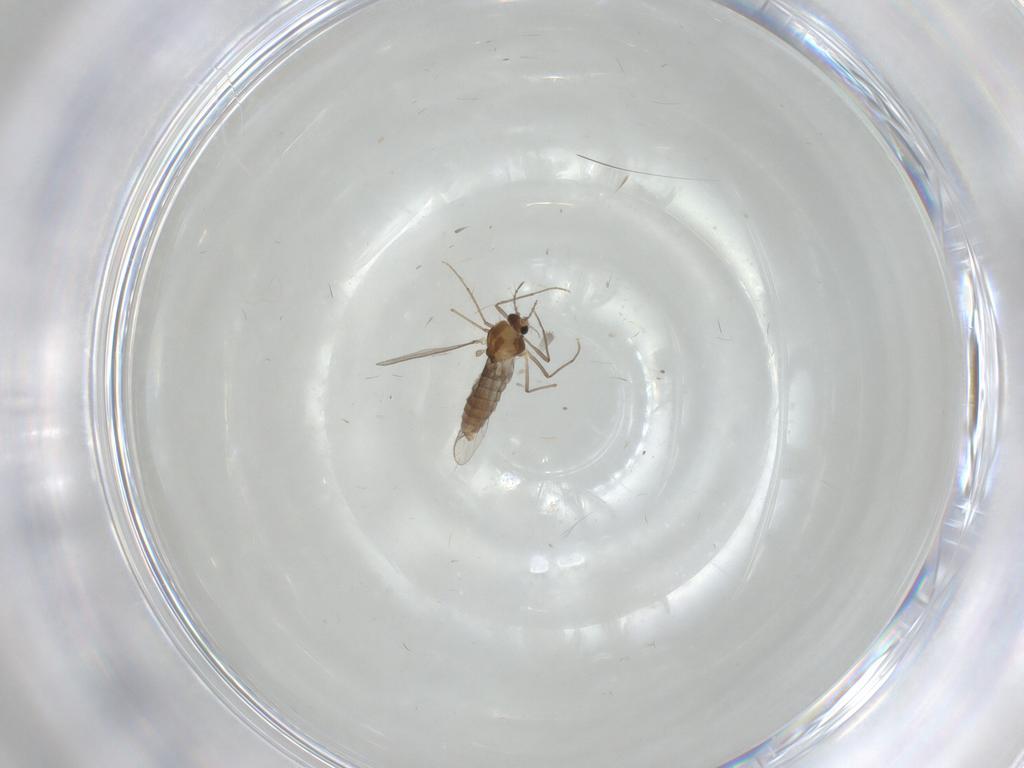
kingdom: Animalia
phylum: Arthropoda
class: Insecta
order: Diptera
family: Chironomidae
